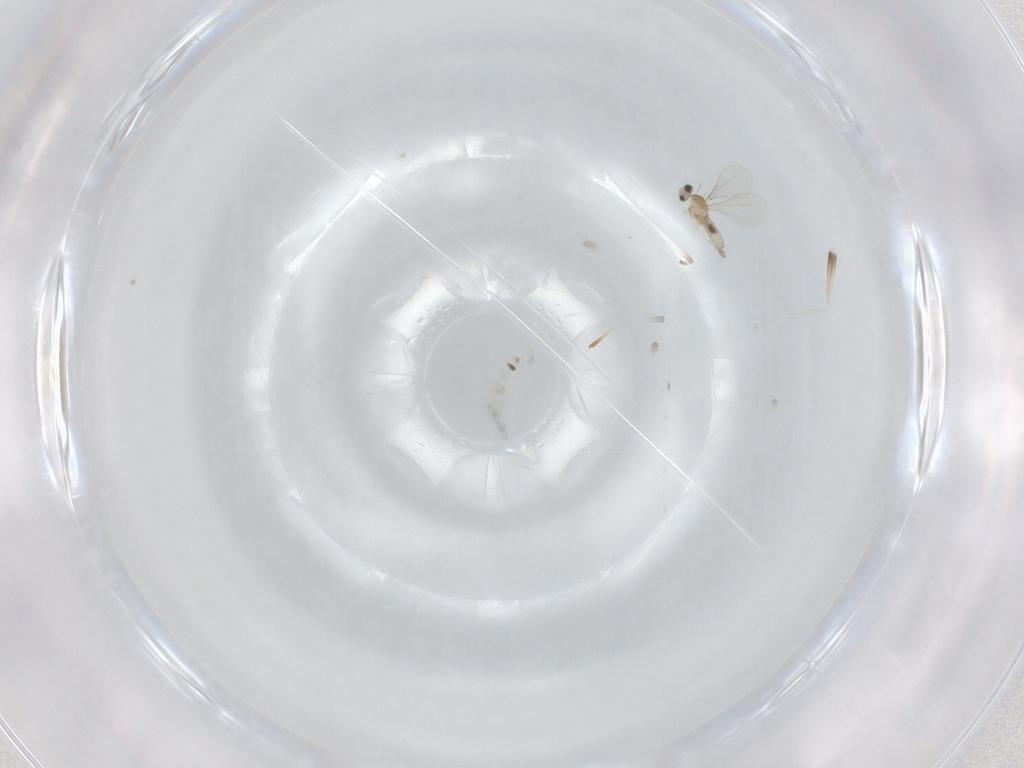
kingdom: Animalia
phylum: Arthropoda
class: Insecta
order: Diptera
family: Cecidomyiidae
